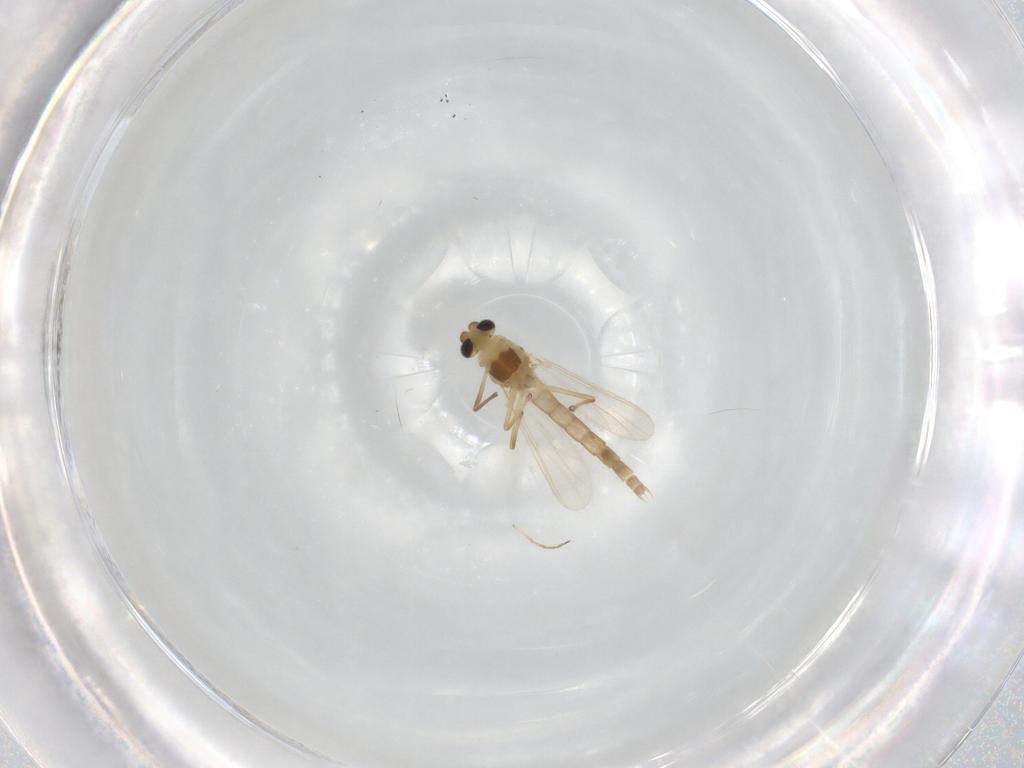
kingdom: Animalia
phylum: Arthropoda
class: Insecta
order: Diptera
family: Chironomidae
